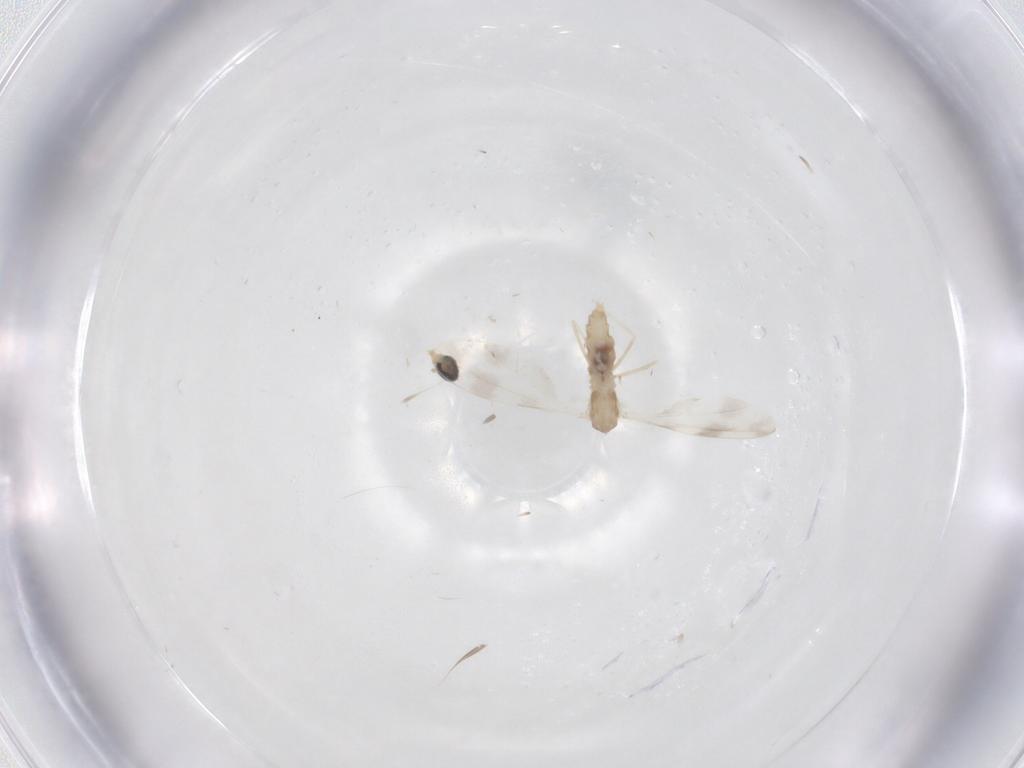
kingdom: Animalia
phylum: Arthropoda
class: Insecta
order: Diptera
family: Cecidomyiidae
